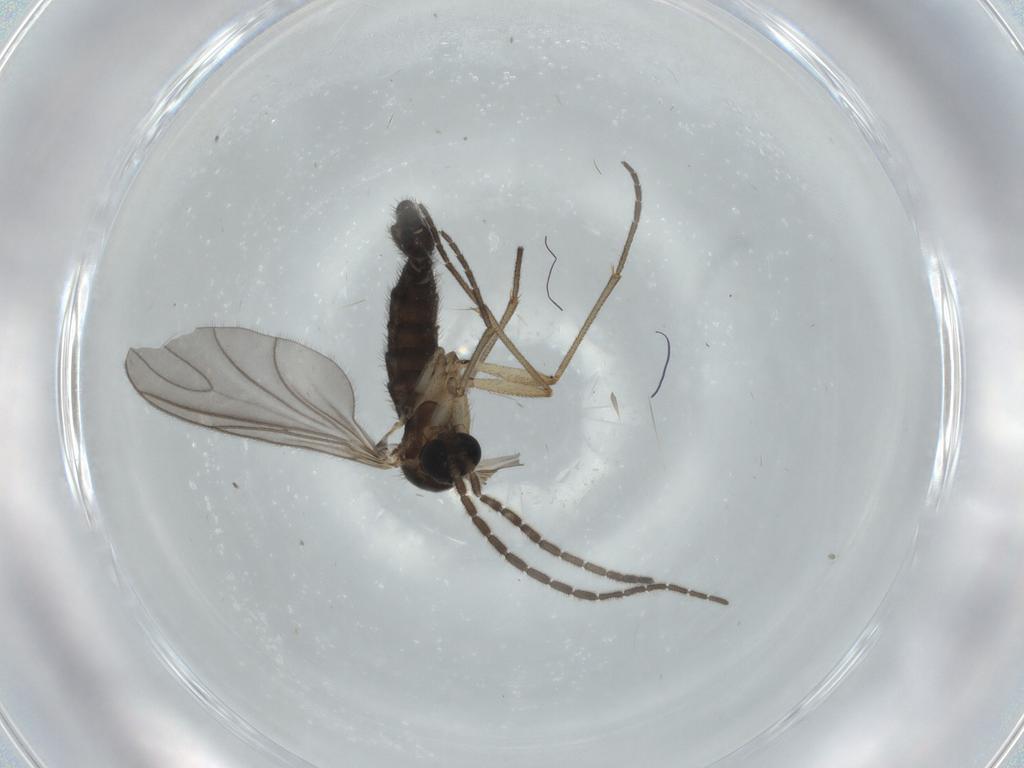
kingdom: Animalia
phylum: Arthropoda
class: Insecta
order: Diptera
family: Sciaridae
